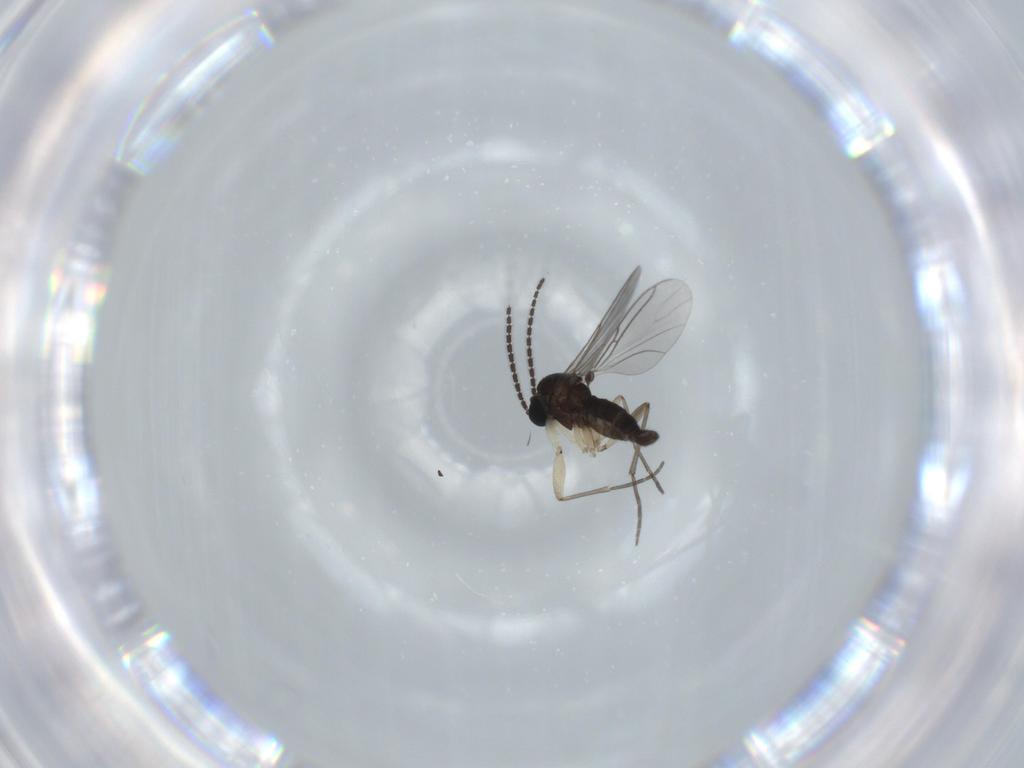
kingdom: Animalia
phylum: Arthropoda
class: Insecta
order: Diptera
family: Sciaridae
